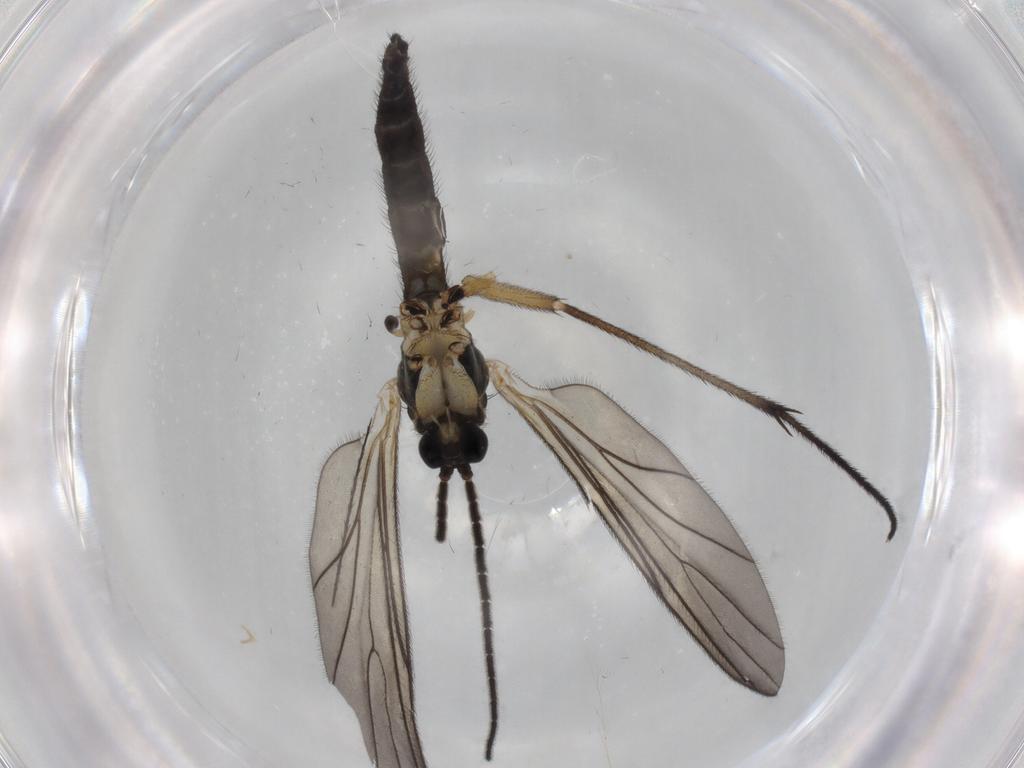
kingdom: Animalia
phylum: Arthropoda
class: Insecta
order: Diptera
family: Sciaridae
